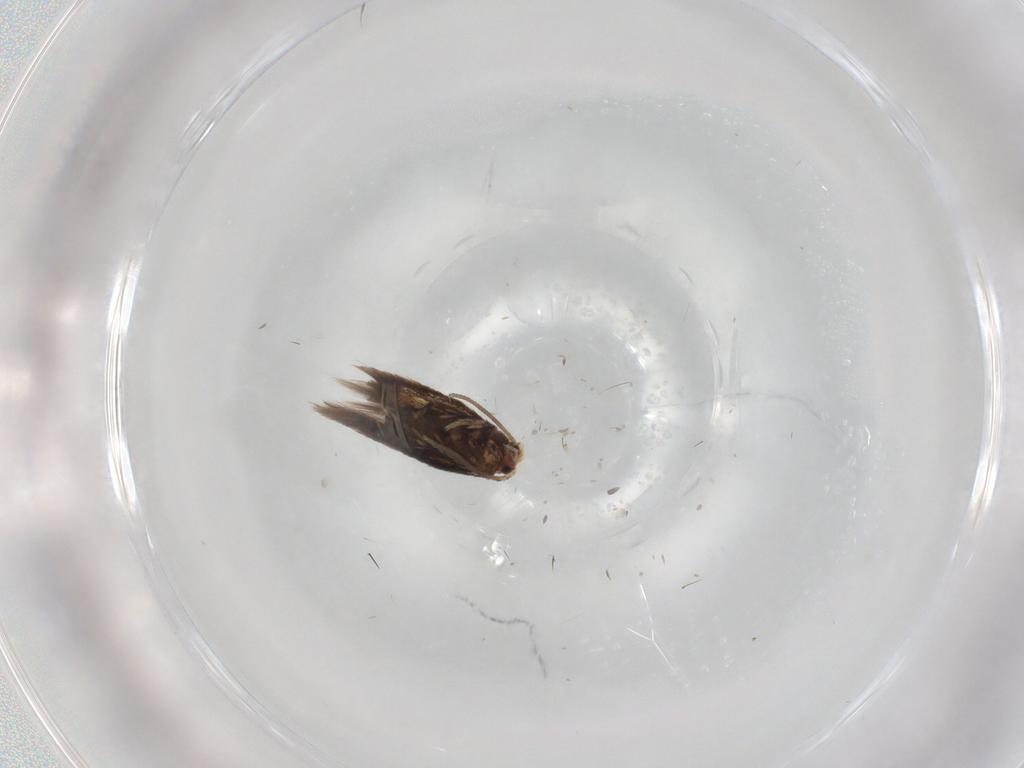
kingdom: Animalia
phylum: Arthropoda
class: Insecta
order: Lepidoptera
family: Nepticulidae
